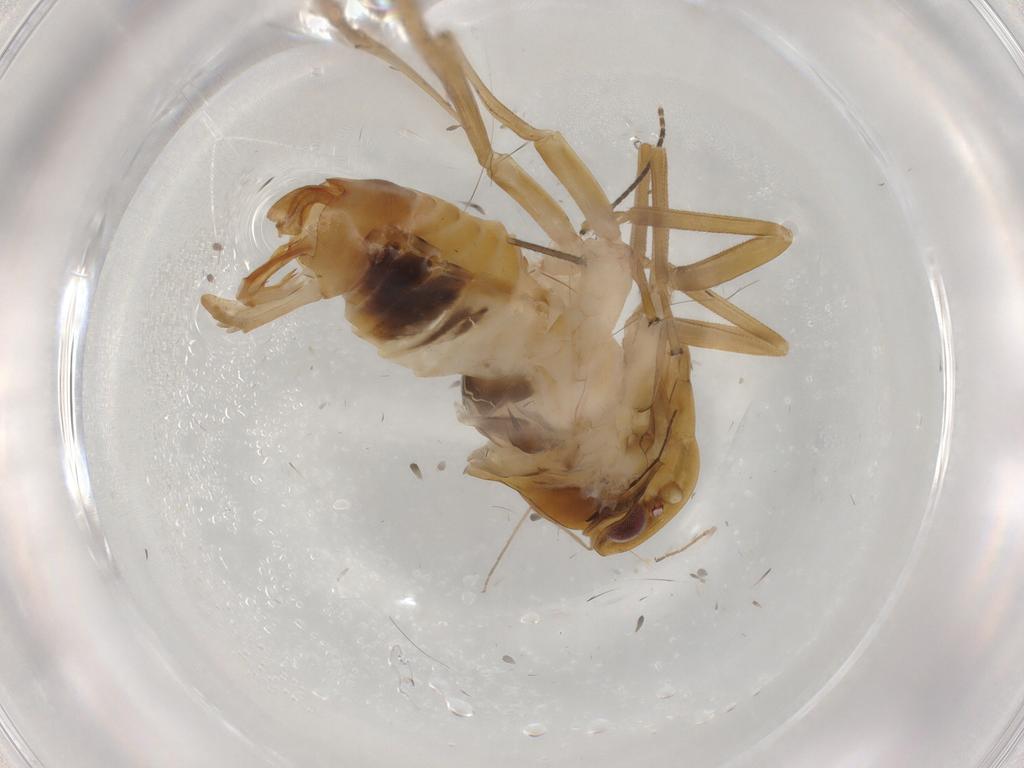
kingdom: Animalia
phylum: Arthropoda
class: Insecta
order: Hemiptera
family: Cixiidae
